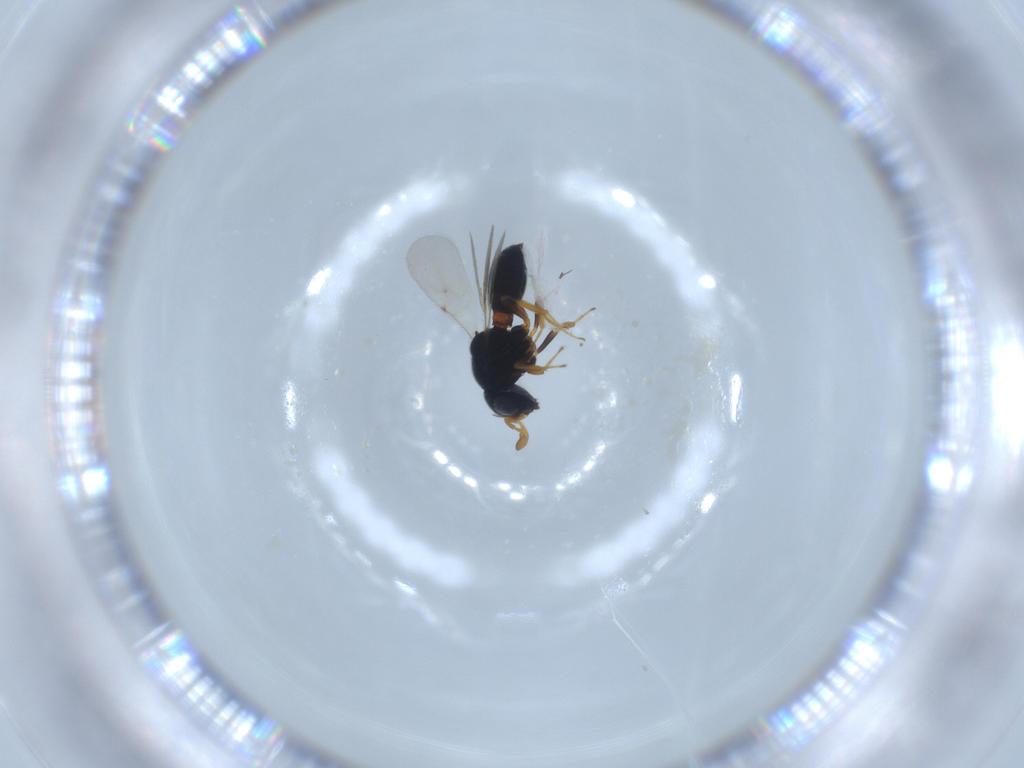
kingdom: Animalia
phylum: Arthropoda
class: Insecta
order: Hymenoptera
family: Scelionidae
